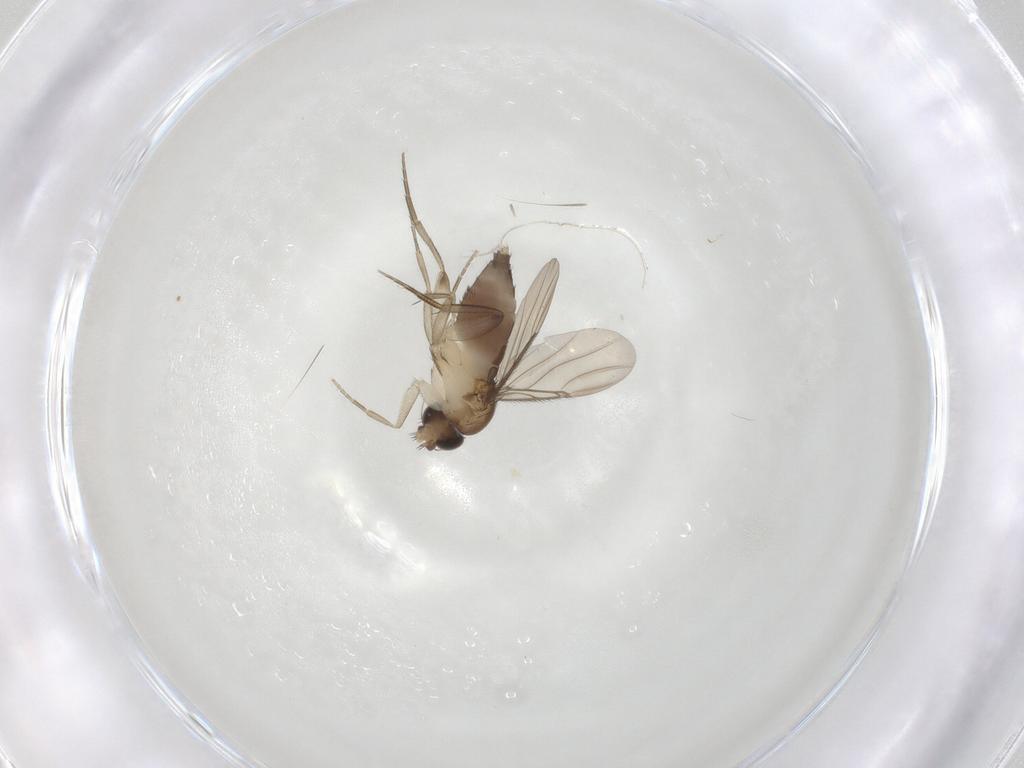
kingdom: Animalia
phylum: Arthropoda
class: Insecta
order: Diptera
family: Phoridae
